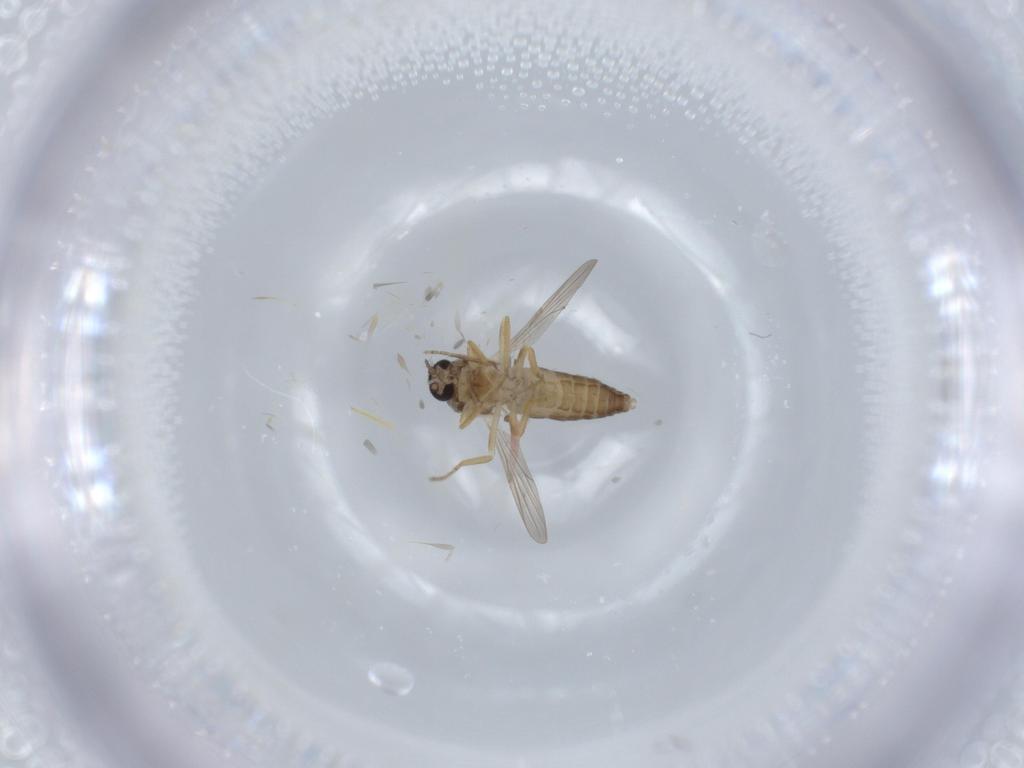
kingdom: Animalia
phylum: Arthropoda
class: Insecta
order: Diptera
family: Ceratopogonidae
